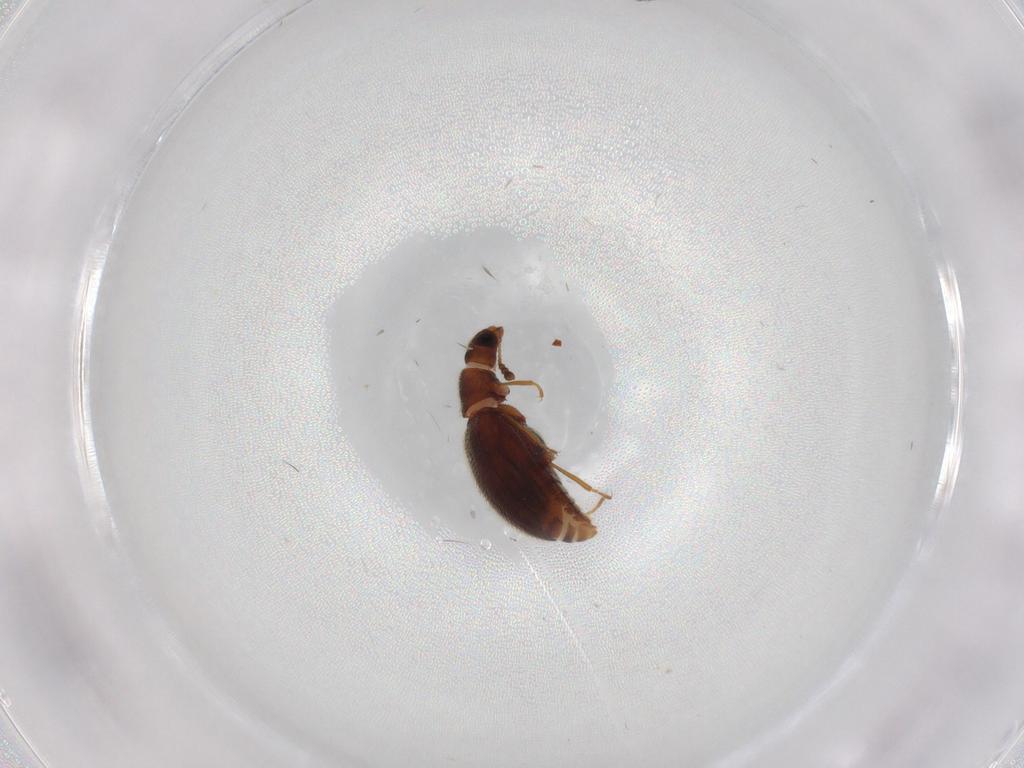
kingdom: Animalia
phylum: Arthropoda
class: Insecta
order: Coleoptera
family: Latridiidae
